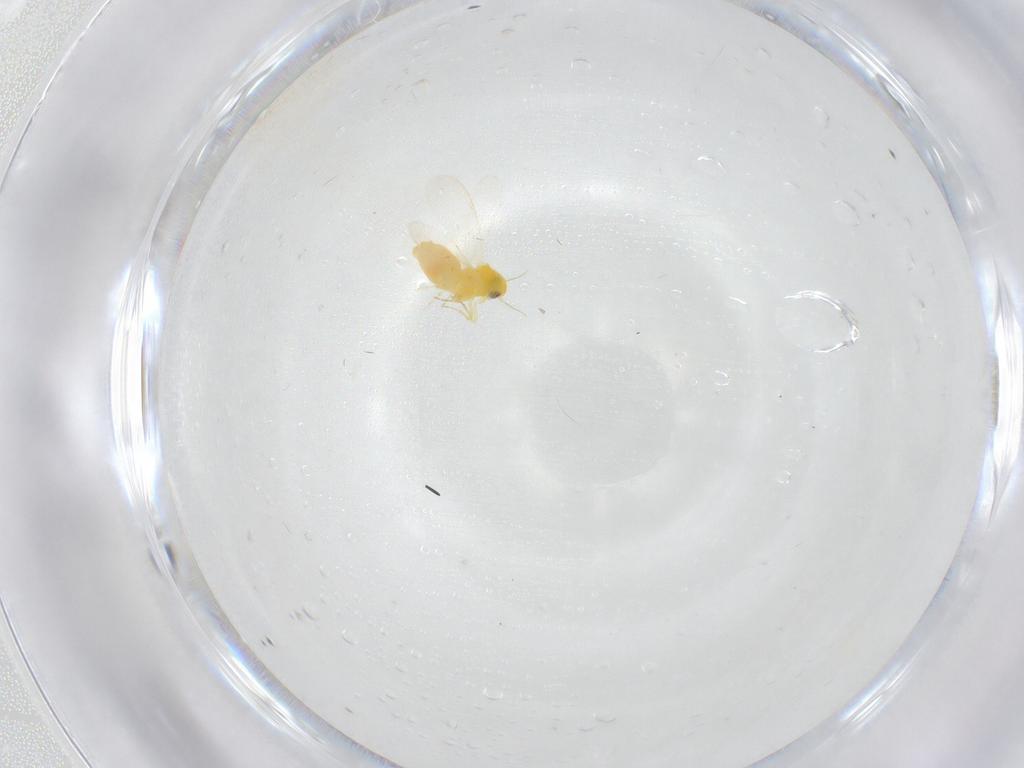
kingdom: Animalia
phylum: Arthropoda
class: Insecta
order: Hemiptera
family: Aleyrodidae
